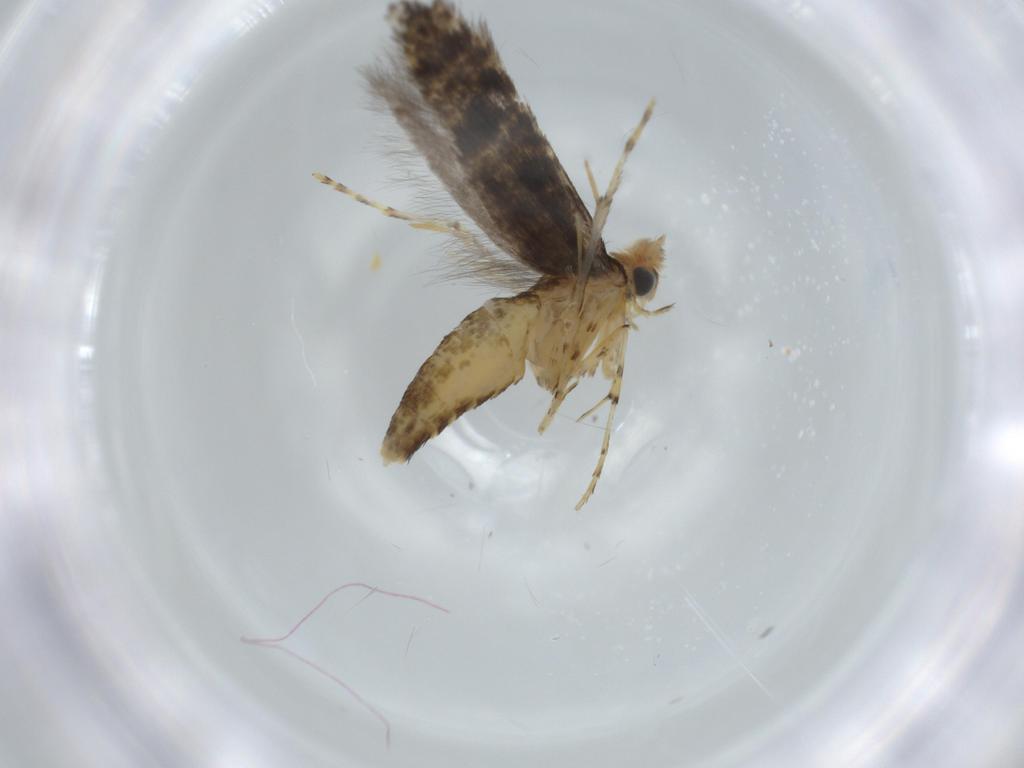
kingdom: Animalia
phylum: Arthropoda
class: Insecta
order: Lepidoptera
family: Argyresthiidae
